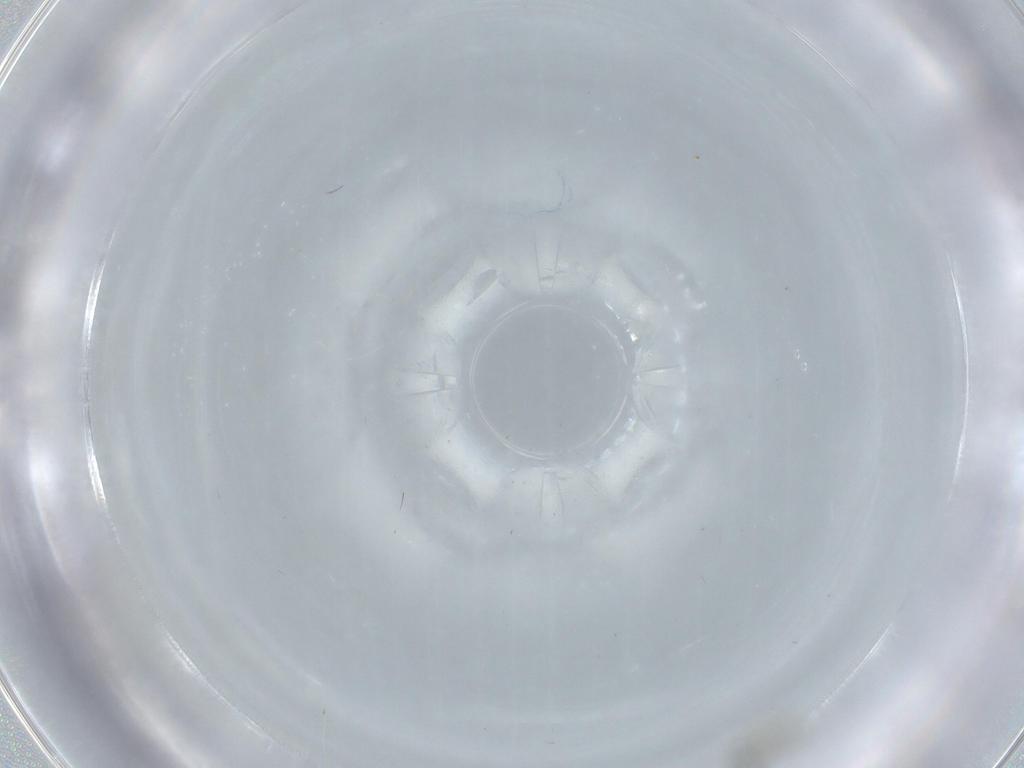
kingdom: Animalia
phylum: Arthropoda
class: Insecta
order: Diptera
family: Cecidomyiidae
